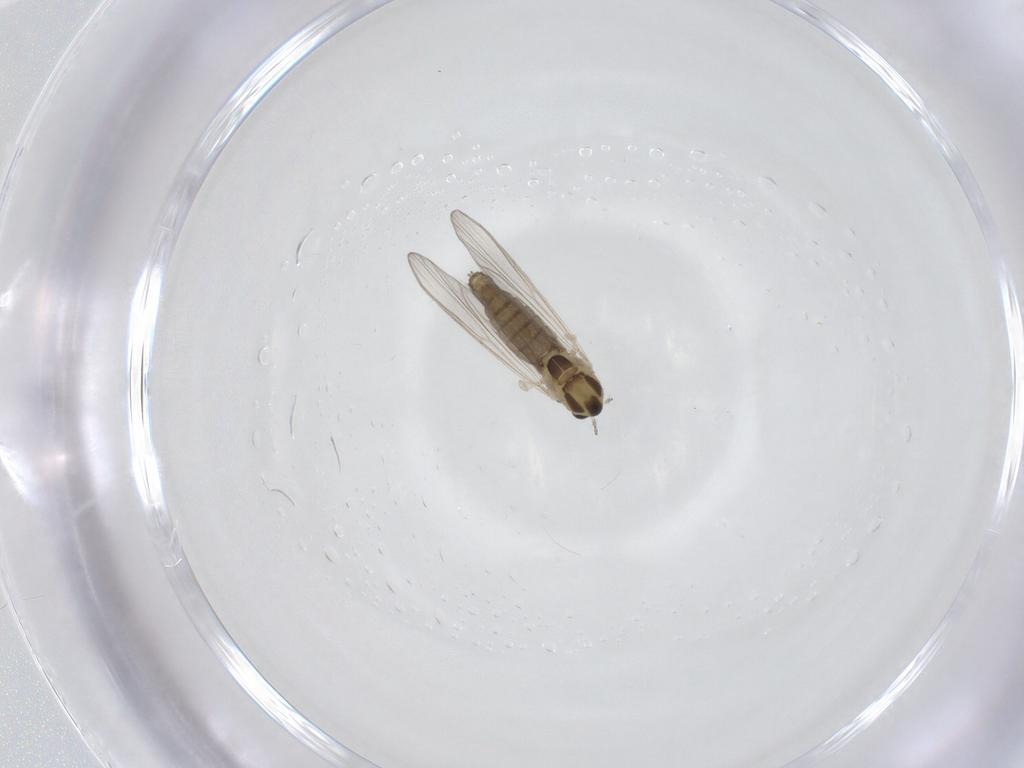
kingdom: Animalia
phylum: Arthropoda
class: Insecta
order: Diptera
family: Chironomidae
